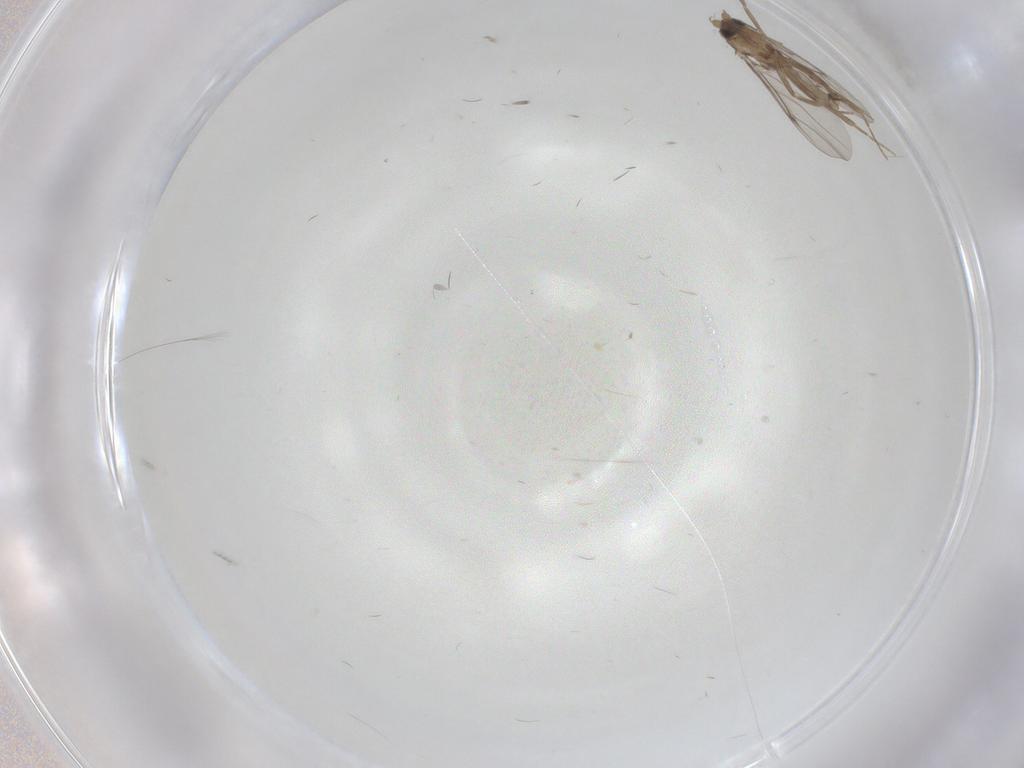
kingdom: Animalia
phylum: Arthropoda
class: Insecta
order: Diptera
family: Cecidomyiidae
